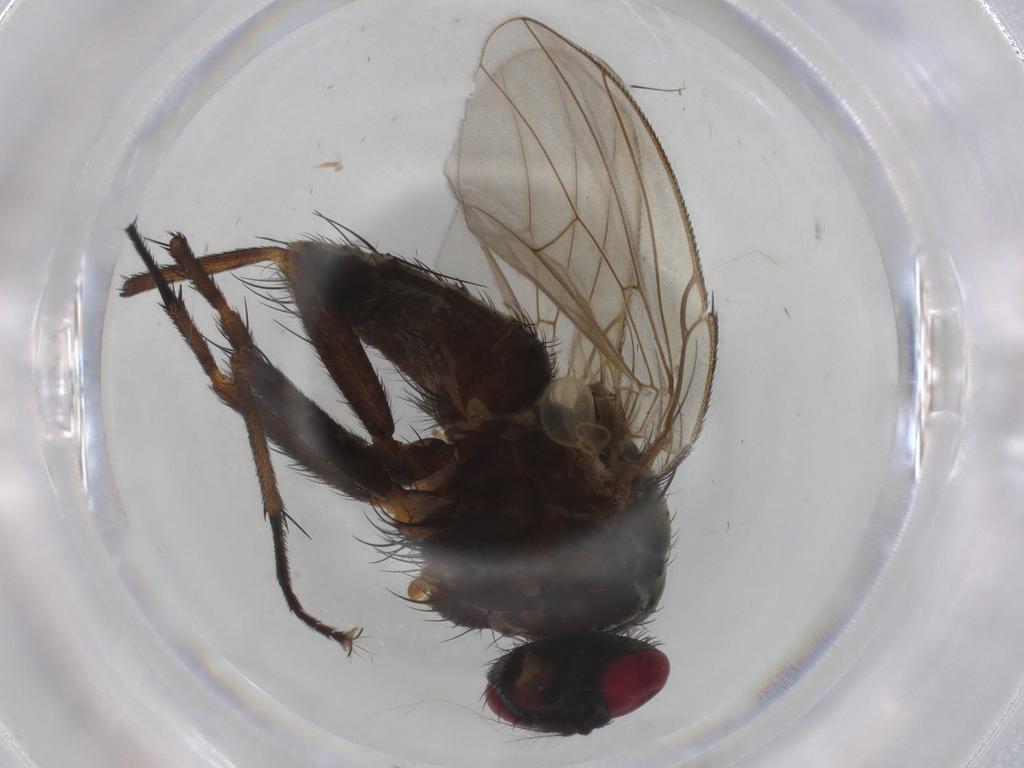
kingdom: Animalia
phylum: Arthropoda
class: Insecta
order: Diptera
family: Muscidae
